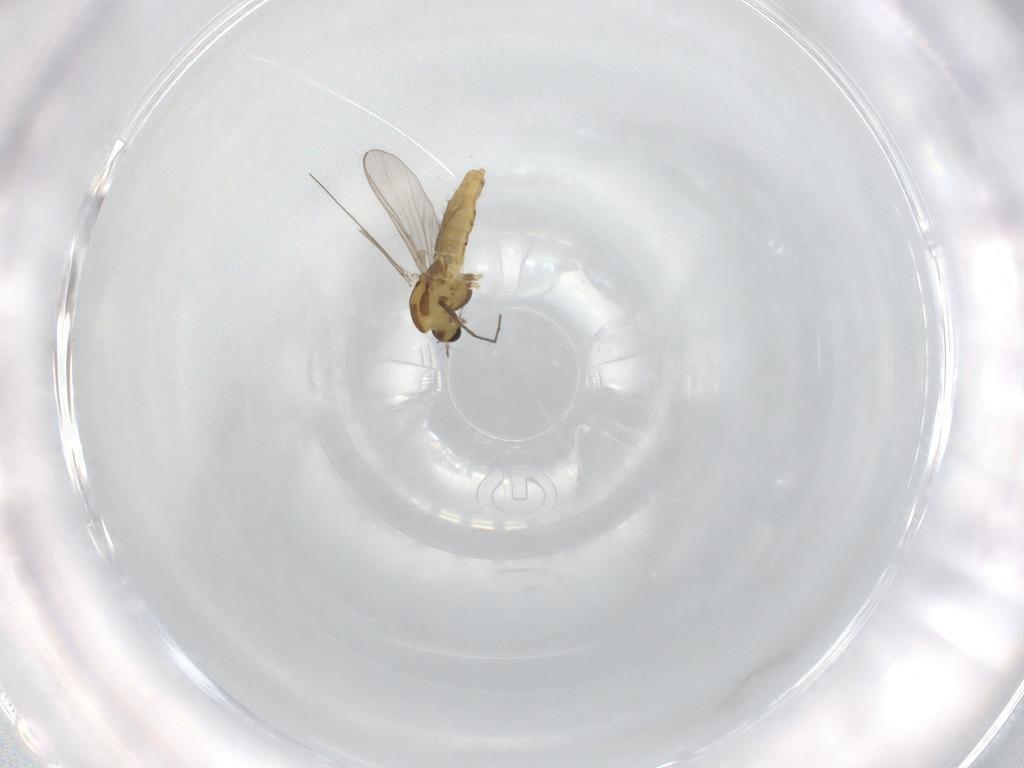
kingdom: Animalia
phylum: Arthropoda
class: Insecta
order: Diptera
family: Chironomidae
